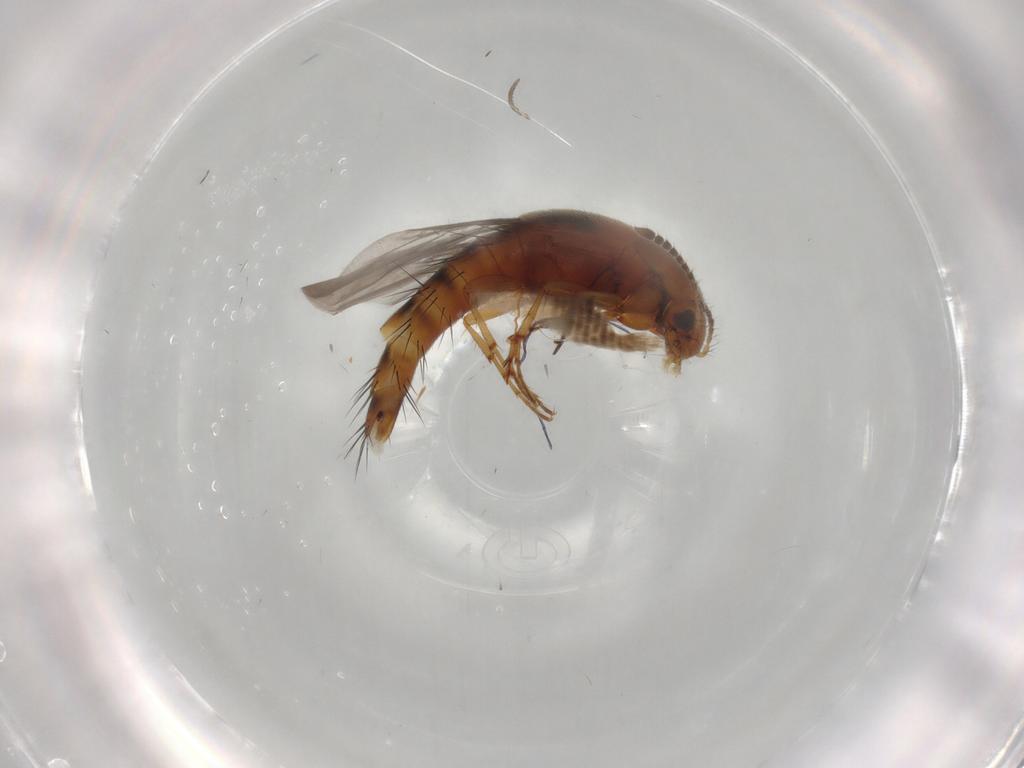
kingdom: Animalia
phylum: Arthropoda
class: Insecta
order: Coleoptera
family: Staphylinidae
